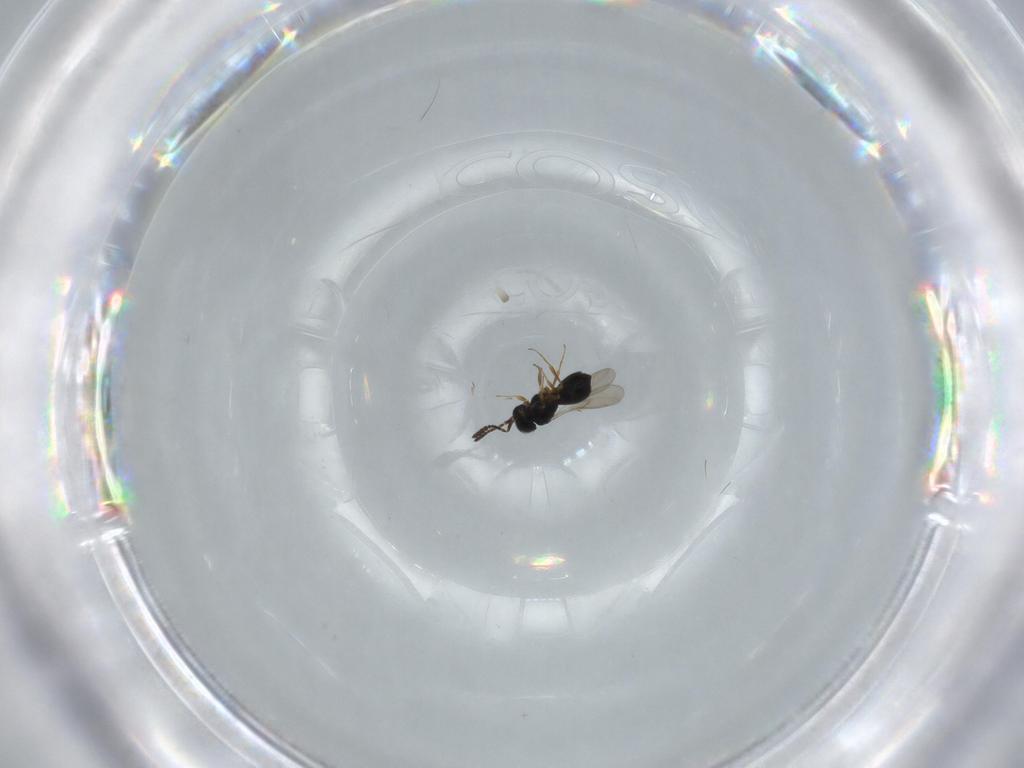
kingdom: Animalia
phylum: Arthropoda
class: Insecta
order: Hymenoptera
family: Scelionidae
